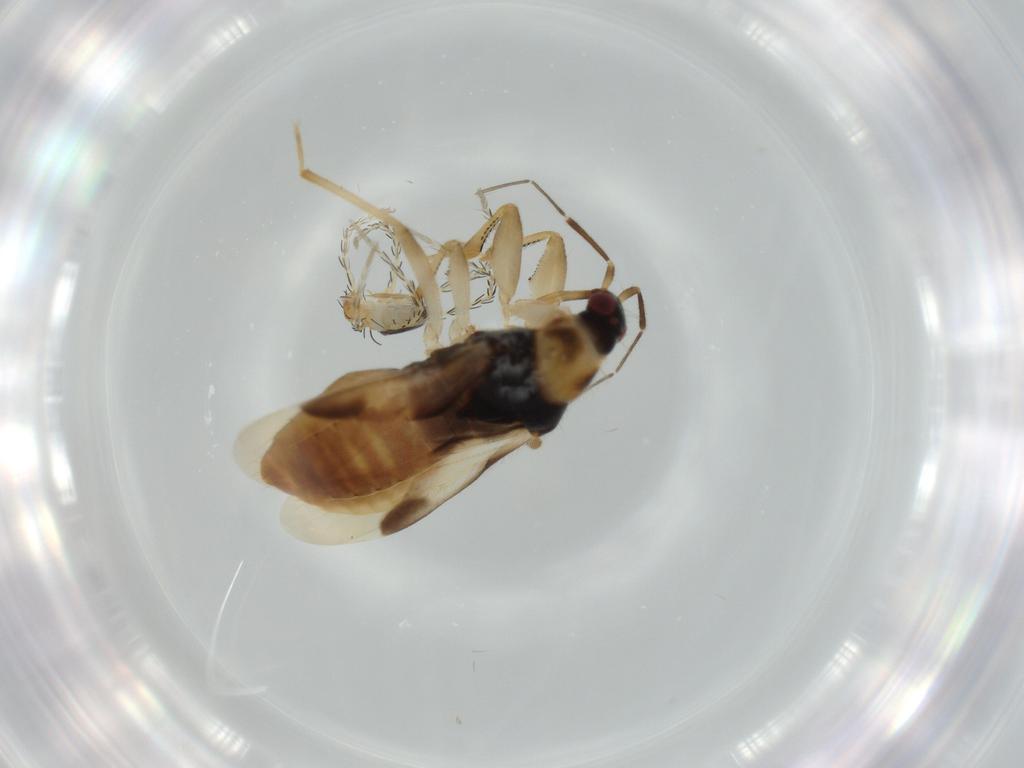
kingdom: Animalia
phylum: Arthropoda
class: Insecta
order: Hemiptera
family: Nabidae
